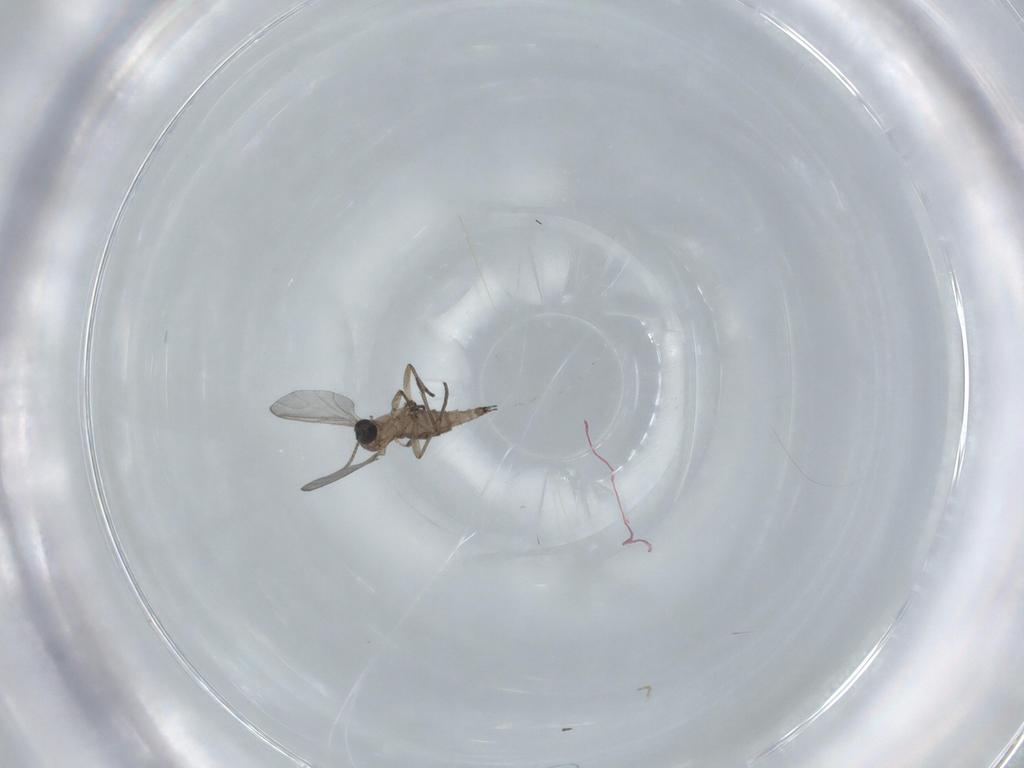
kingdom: Animalia
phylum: Arthropoda
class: Insecta
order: Diptera
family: Sciaridae
